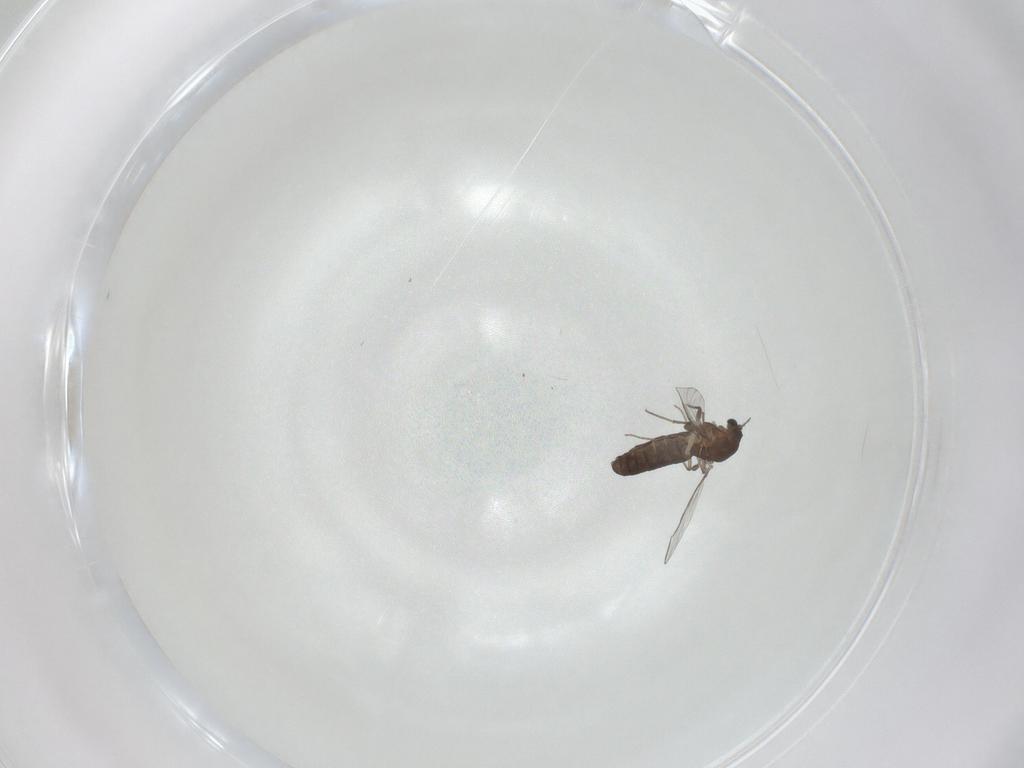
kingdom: Animalia
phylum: Arthropoda
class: Insecta
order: Diptera
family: Chironomidae
